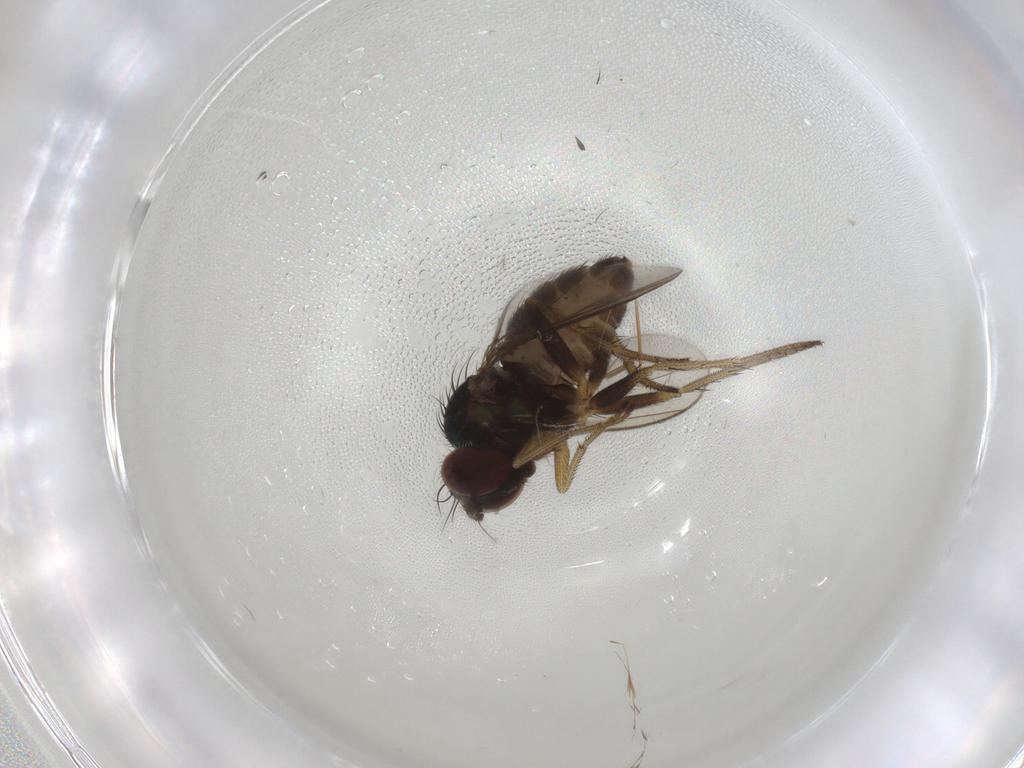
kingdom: Animalia
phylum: Arthropoda
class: Insecta
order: Diptera
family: Dolichopodidae
